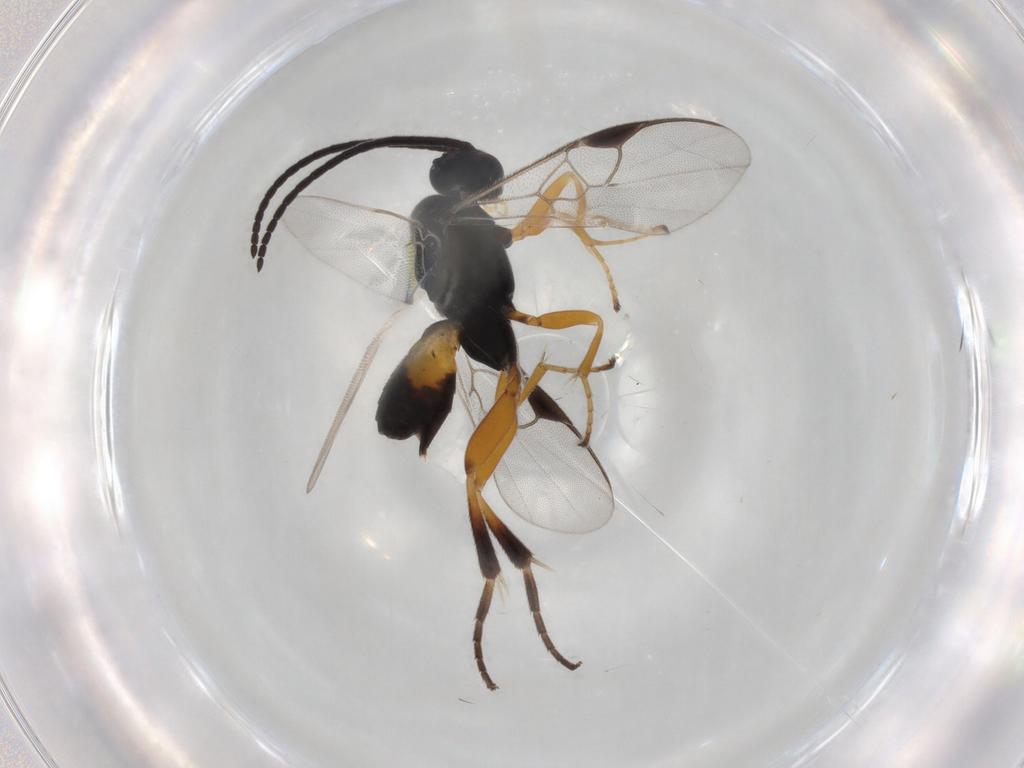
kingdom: Animalia
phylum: Arthropoda
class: Insecta
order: Hymenoptera
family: Braconidae
